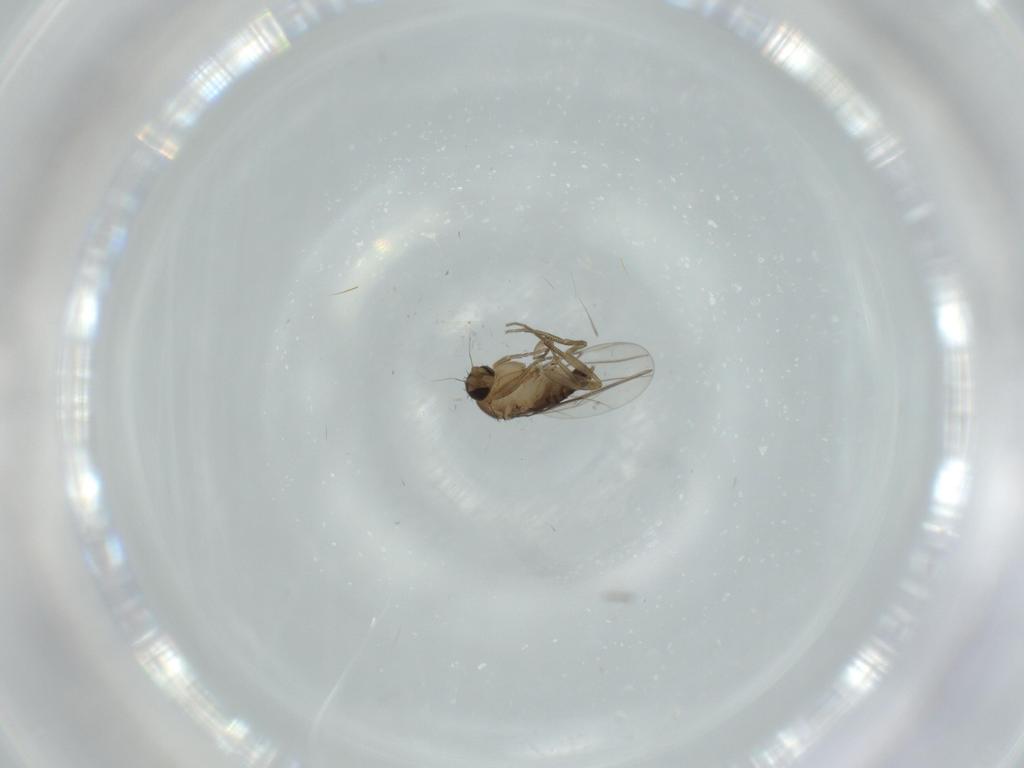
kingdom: Animalia
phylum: Arthropoda
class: Insecta
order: Diptera
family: Phoridae
